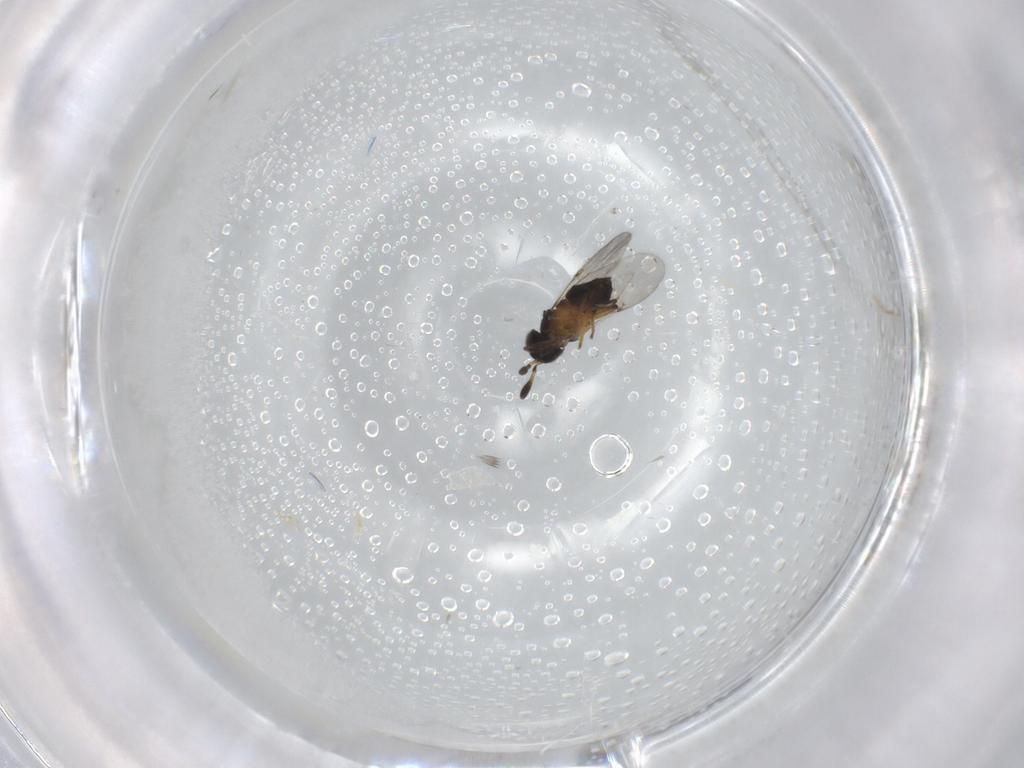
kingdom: Animalia
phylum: Arthropoda
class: Insecta
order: Hymenoptera
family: Encyrtidae
